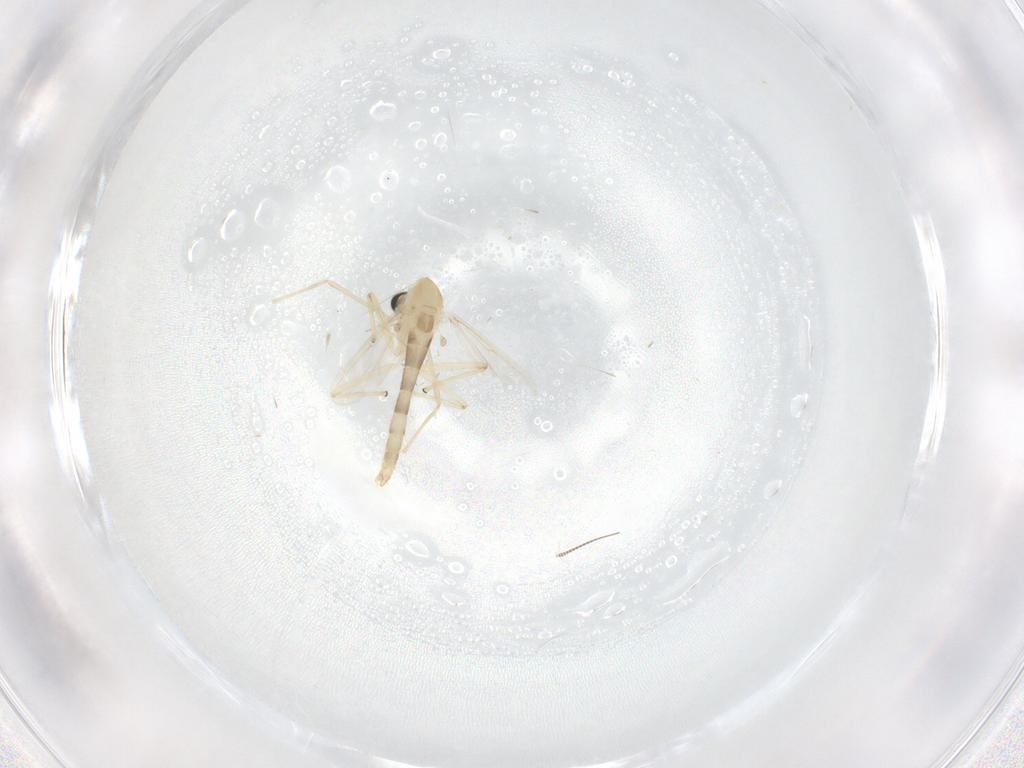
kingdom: Animalia
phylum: Arthropoda
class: Insecta
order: Diptera
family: Chironomidae
